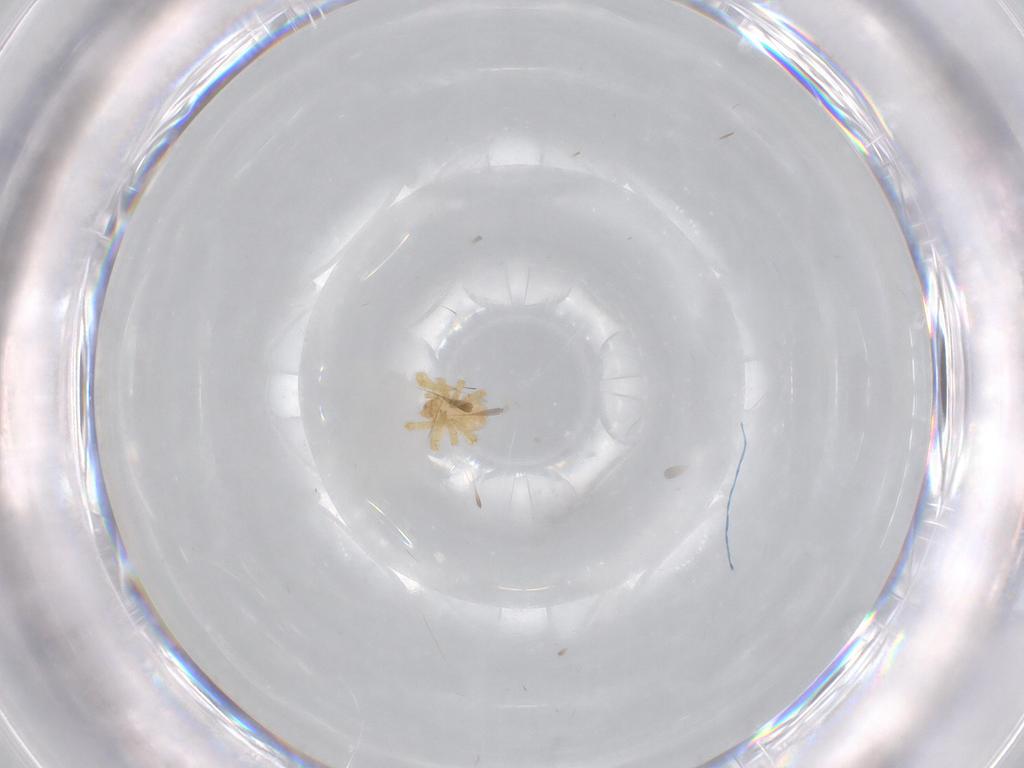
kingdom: Animalia
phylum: Arthropoda
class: Arachnida
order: Araneae
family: Theridiidae
